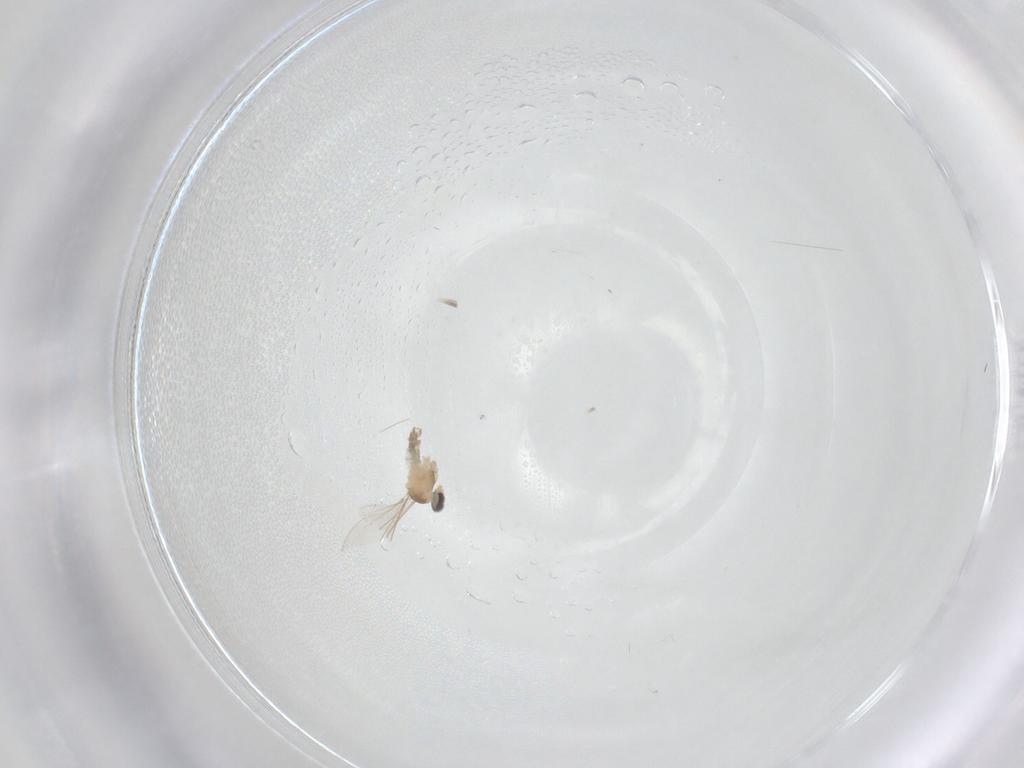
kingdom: Animalia
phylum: Arthropoda
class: Insecta
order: Diptera
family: Cecidomyiidae
